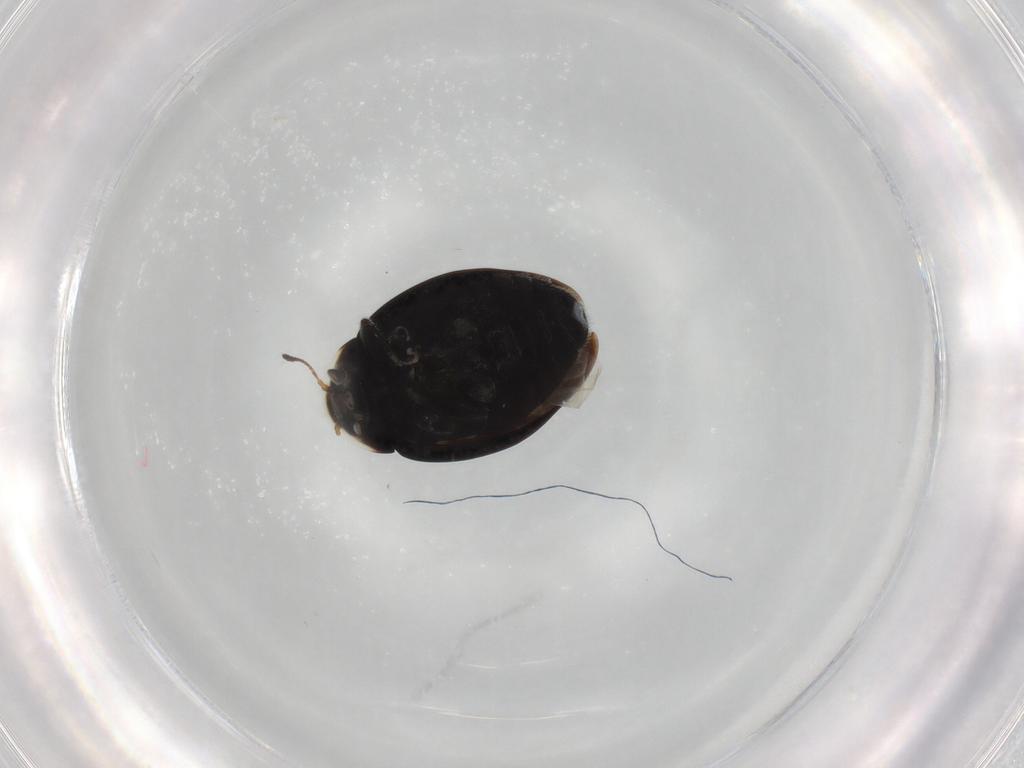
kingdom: Animalia
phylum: Arthropoda
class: Insecta
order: Coleoptera
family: Coccinellidae
